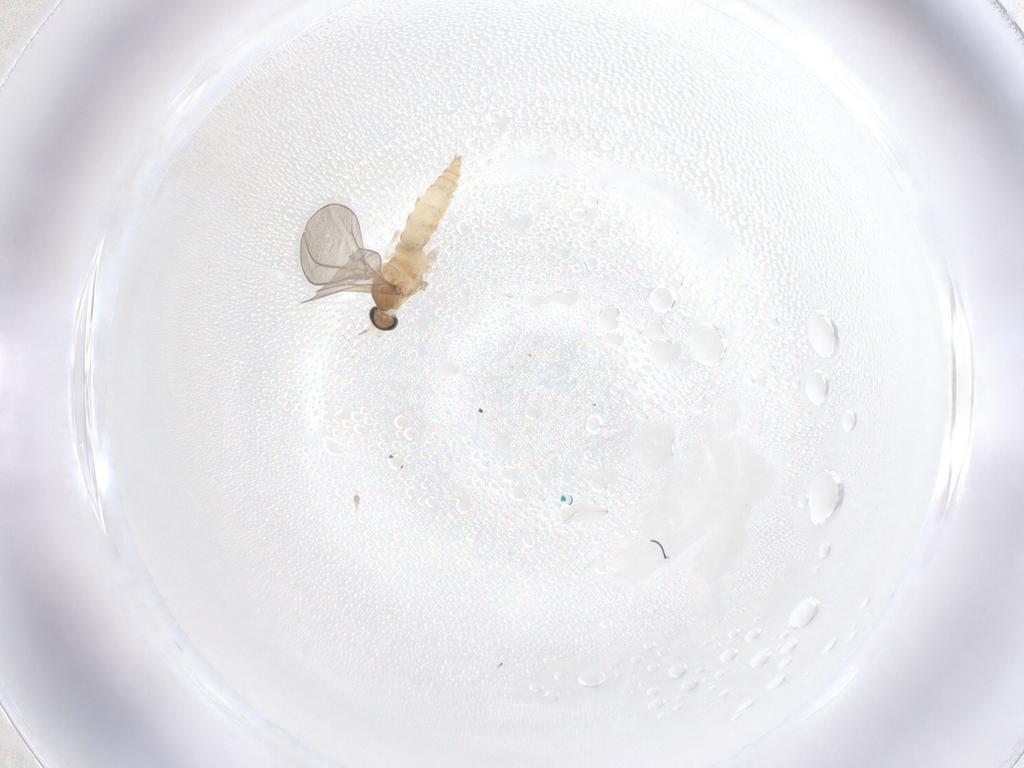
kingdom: Animalia
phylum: Arthropoda
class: Insecta
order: Diptera
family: Cecidomyiidae
